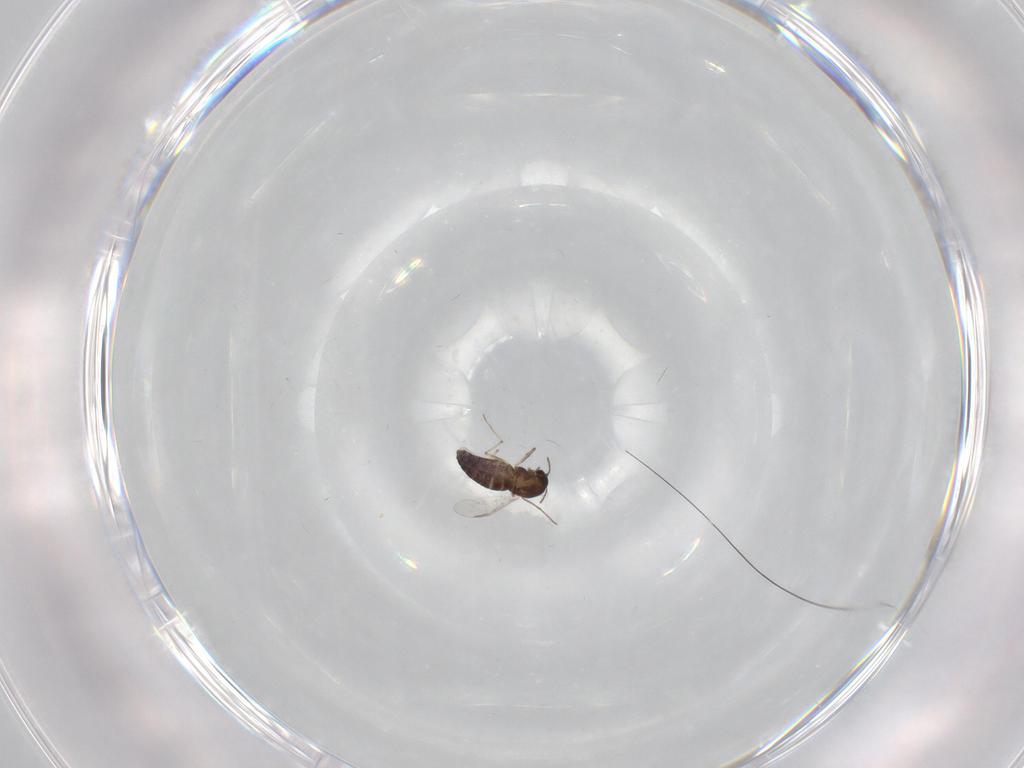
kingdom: Animalia
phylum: Arthropoda
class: Insecta
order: Diptera
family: Chironomidae
